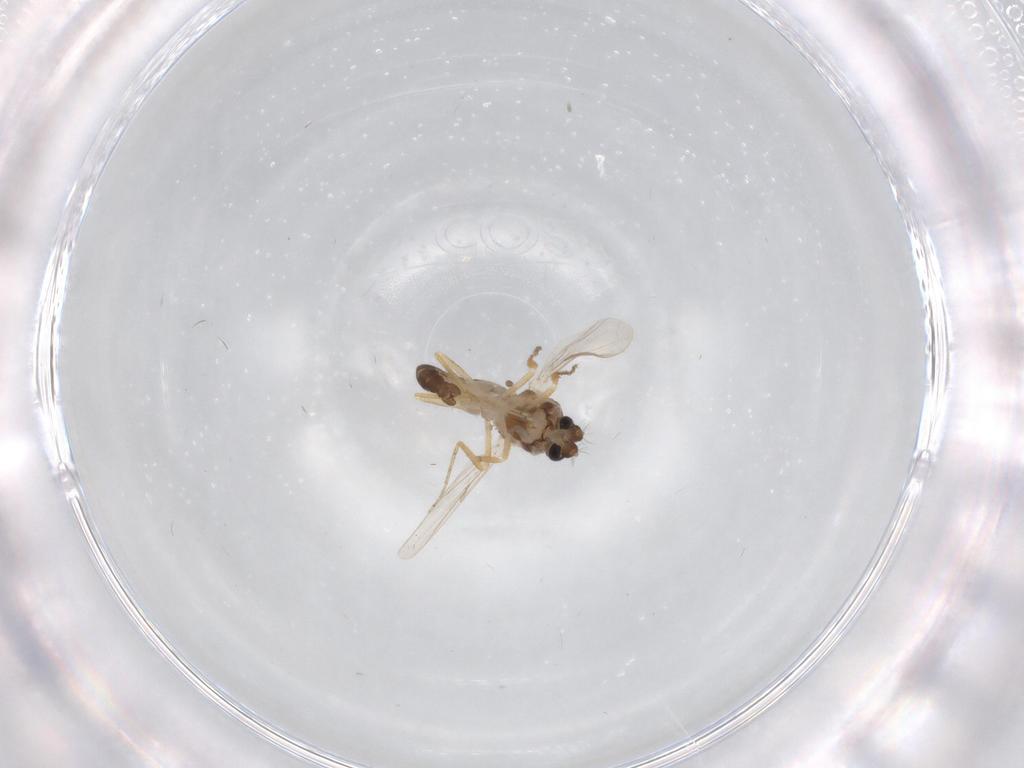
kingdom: Animalia
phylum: Arthropoda
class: Insecta
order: Diptera
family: Ceratopogonidae
